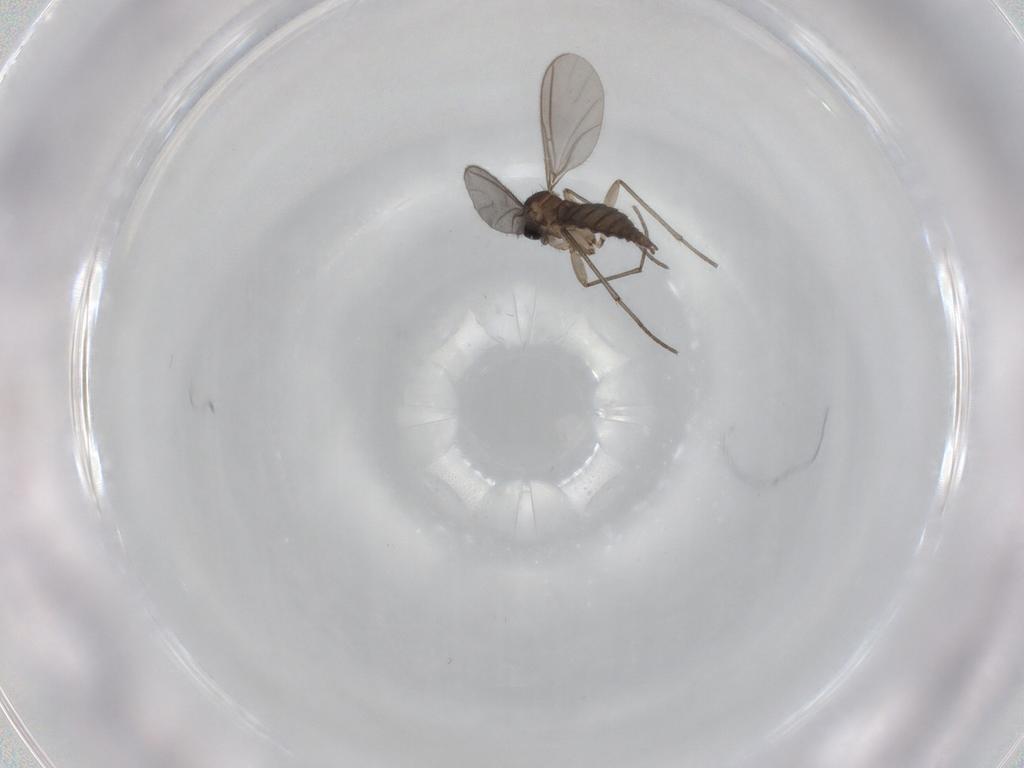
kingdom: Animalia
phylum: Arthropoda
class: Insecta
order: Diptera
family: Sciaridae
